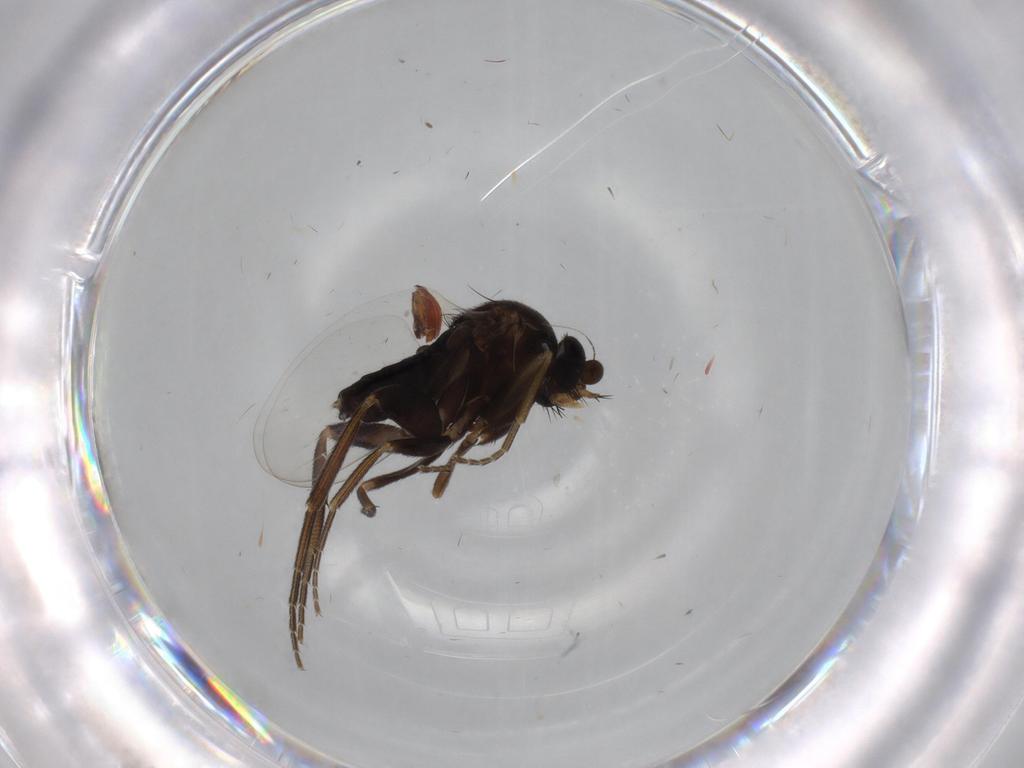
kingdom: Animalia
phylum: Arthropoda
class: Insecta
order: Diptera
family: Phoridae
